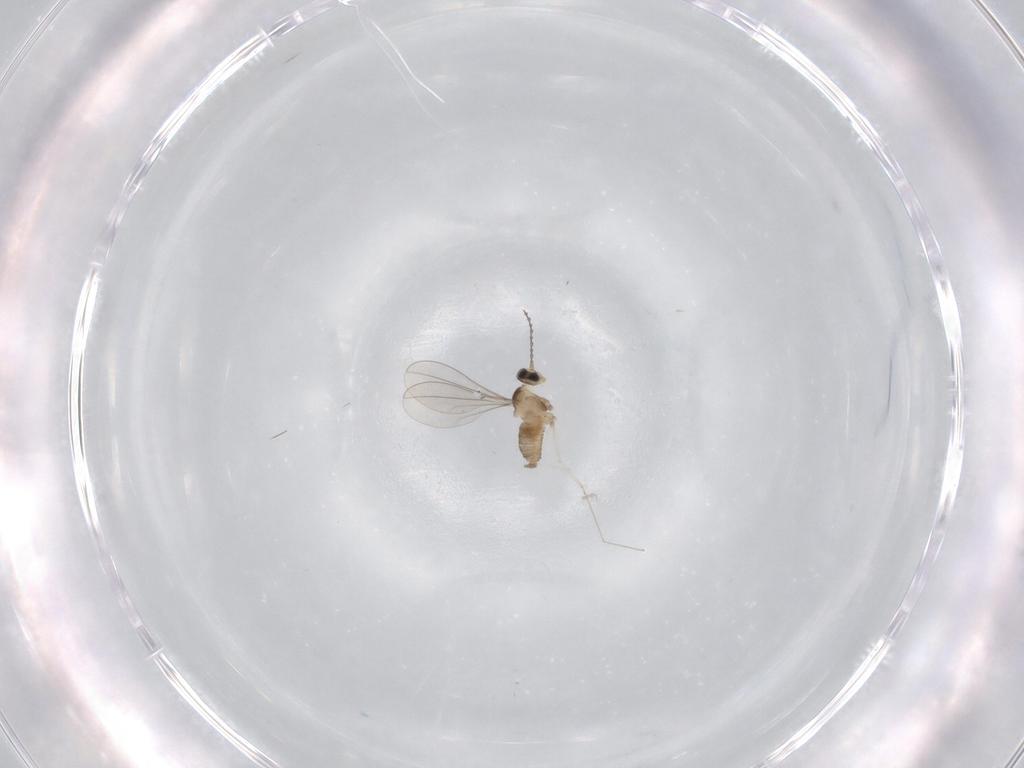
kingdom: Animalia
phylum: Arthropoda
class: Insecta
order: Diptera
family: Cecidomyiidae
